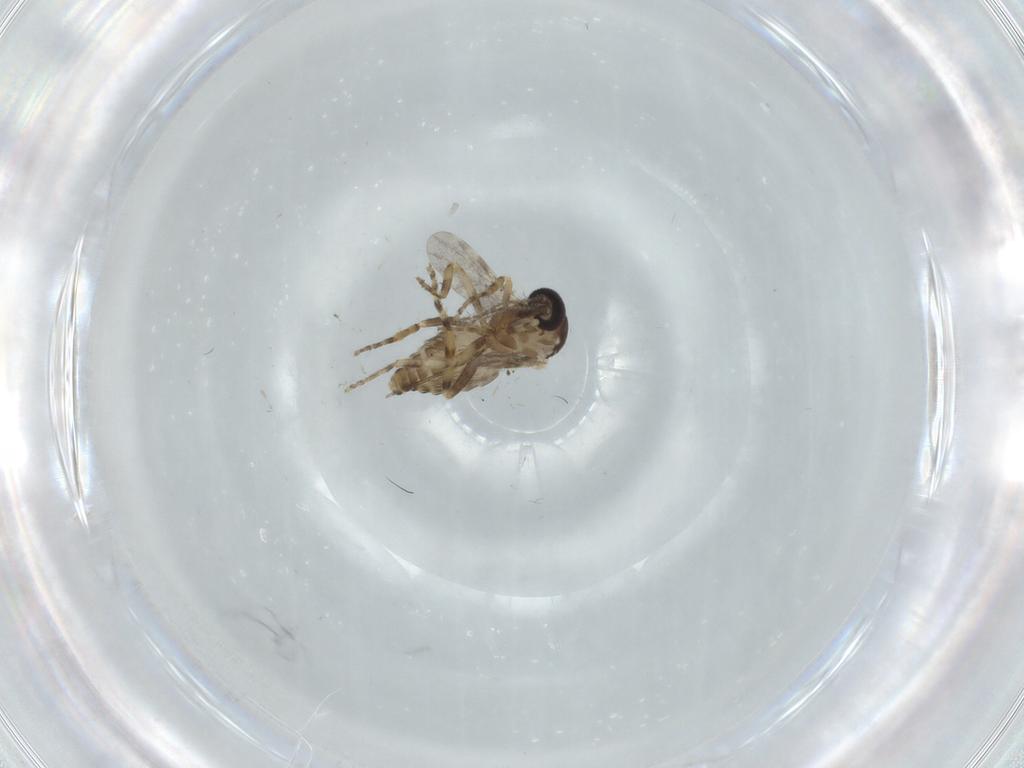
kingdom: Animalia
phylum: Arthropoda
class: Insecta
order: Diptera
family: Ceratopogonidae
